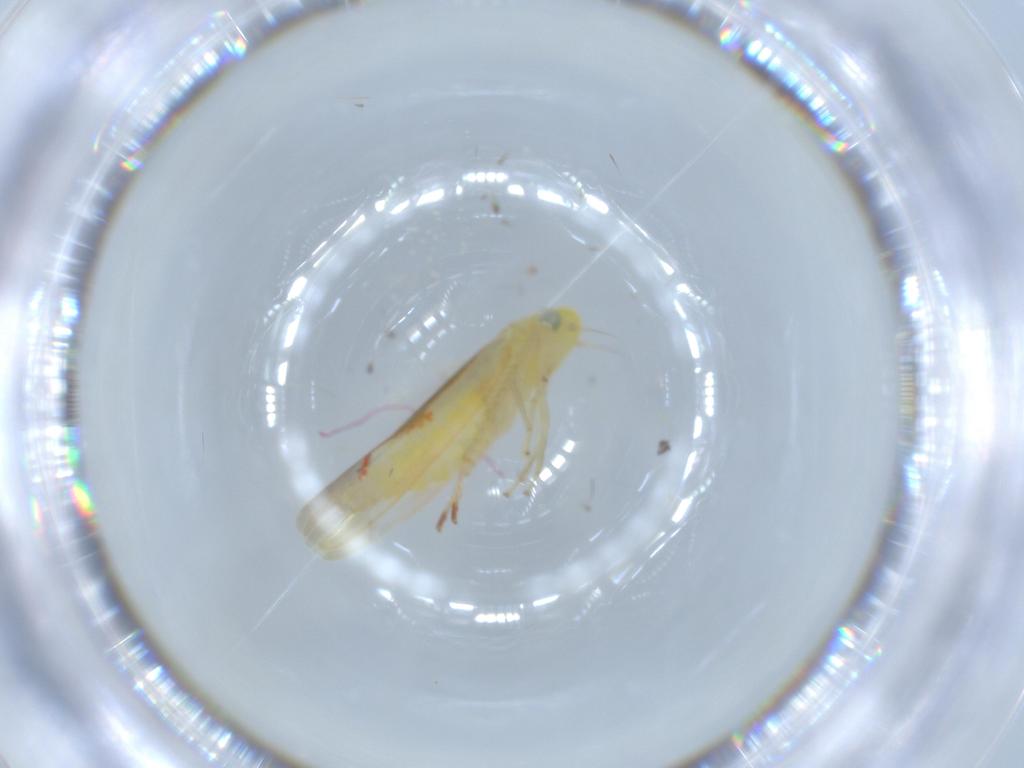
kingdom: Animalia
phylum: Arthropoda
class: Insecta
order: Hemiptera
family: Cicadellidae
